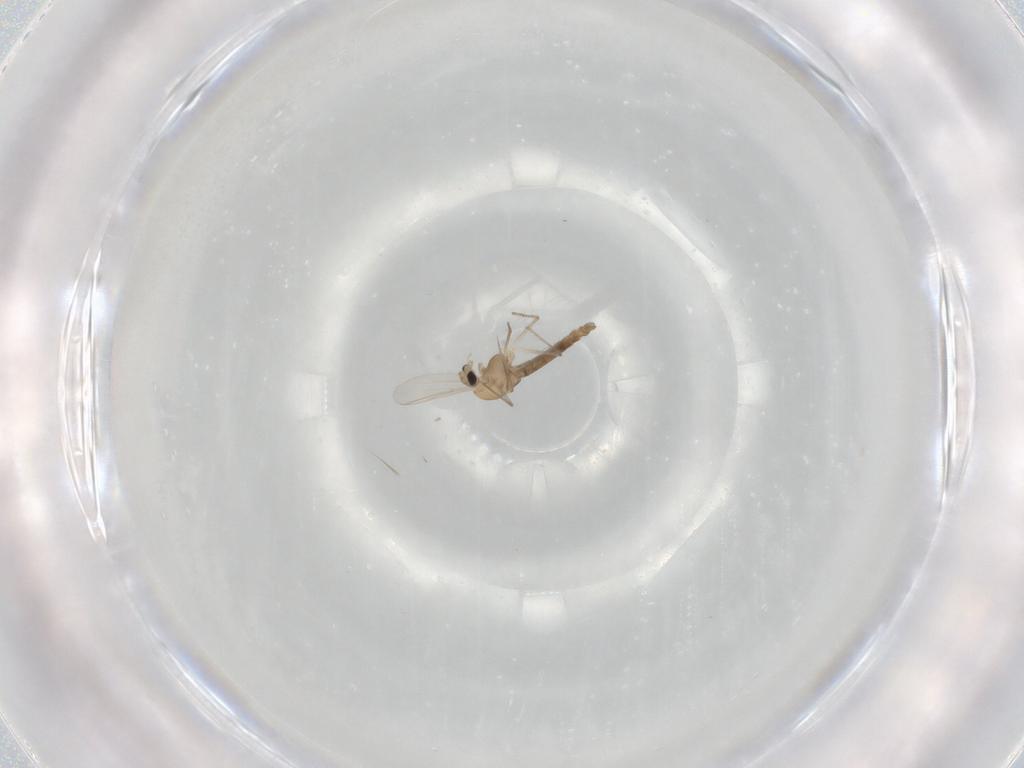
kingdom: Animalia
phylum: Arthropoda
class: Insecta
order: Diptera
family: Chironomidae
